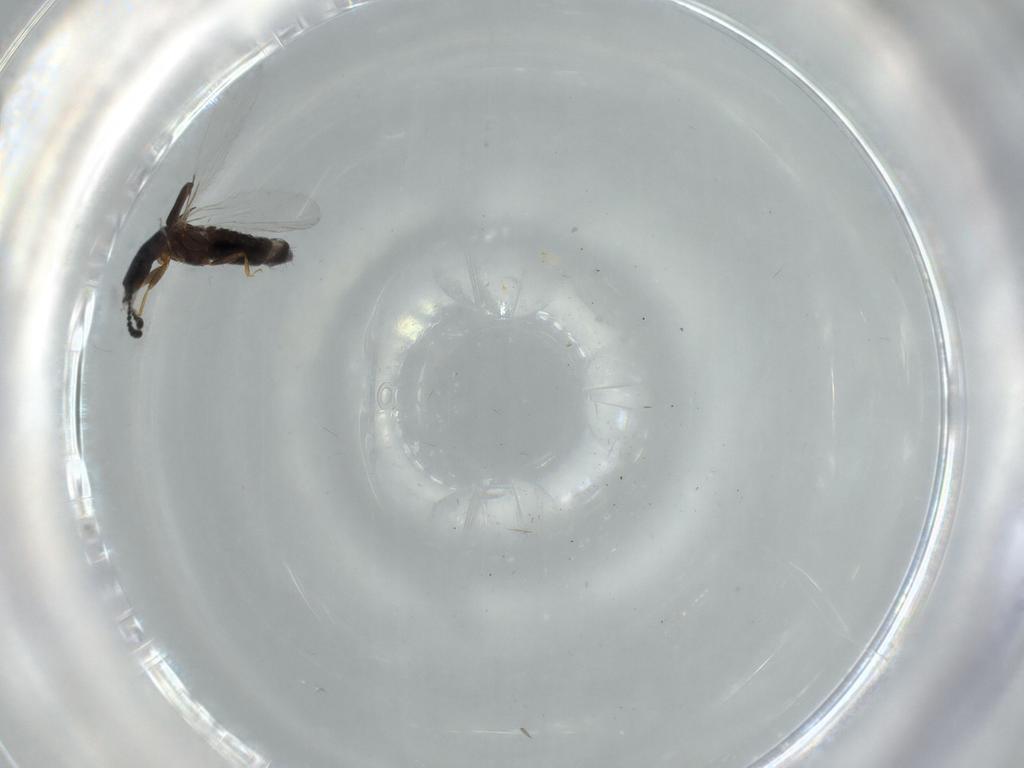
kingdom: Animalia
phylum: Arthropoda
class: Insecta
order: Coleoptera
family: Staphylinidae
